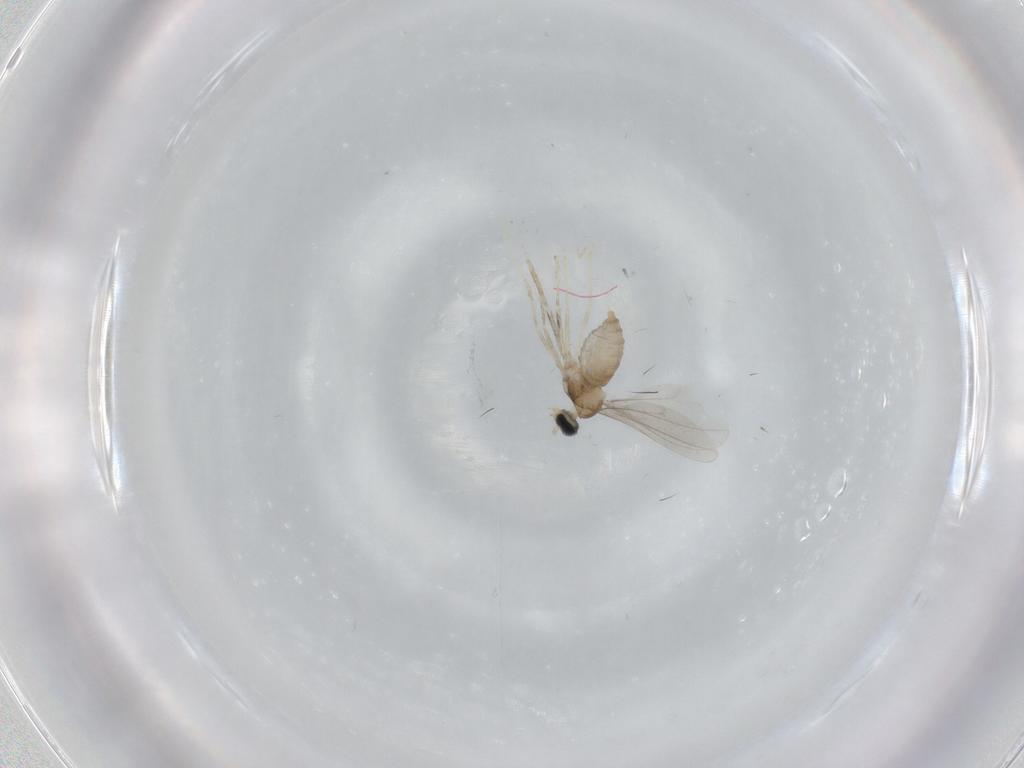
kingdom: Animalia
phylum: Arthropoda
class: Insecta
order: Diptera
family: Cecidomyiidae
